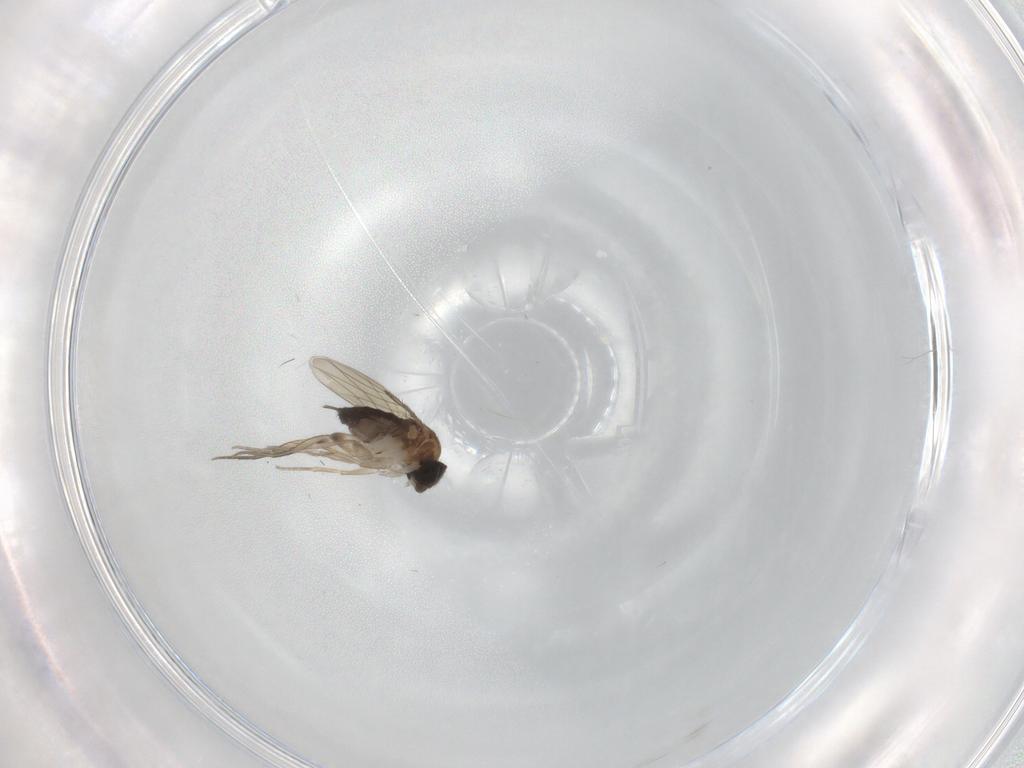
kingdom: Animalia
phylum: Arthropoda
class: Insecta
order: Diptera
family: Phoridae
